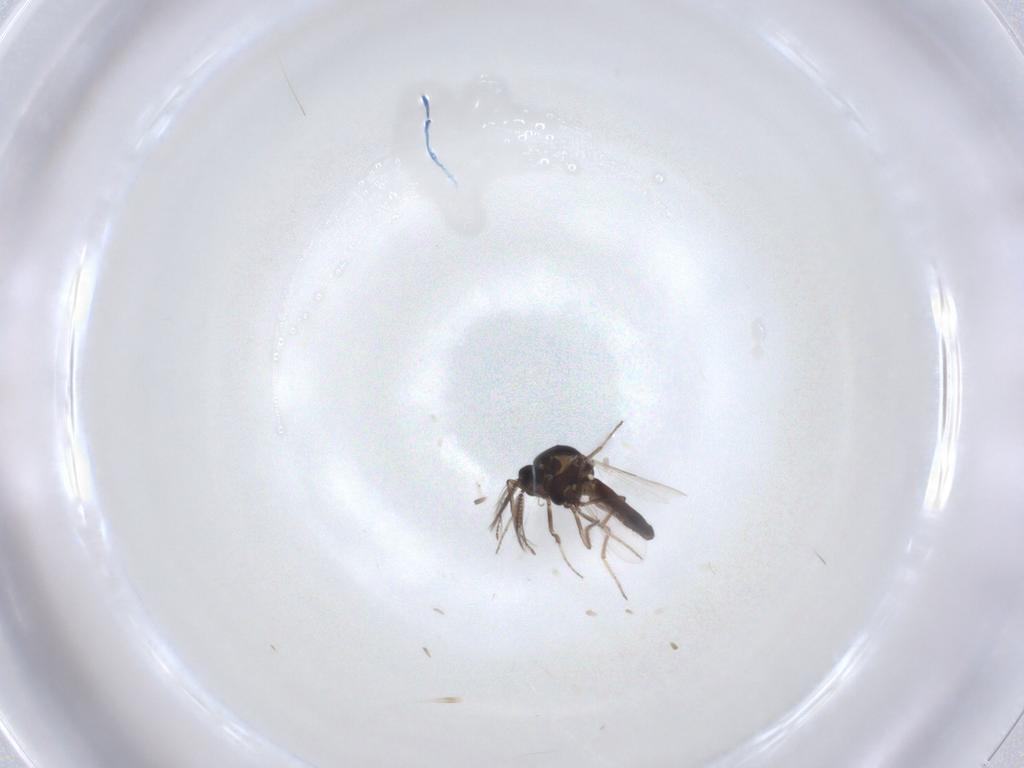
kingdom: Animalia
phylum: Arthropoda
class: Insecta
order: Diptera
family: Ceratopogonidae
